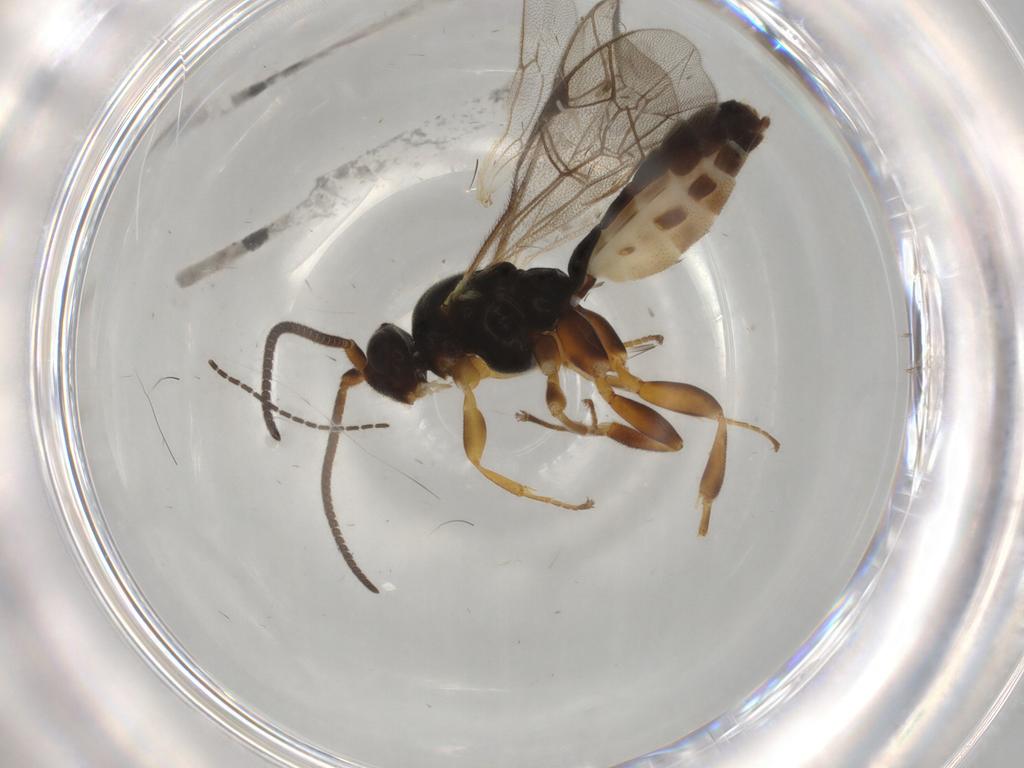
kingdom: Animalia
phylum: Arthropoda
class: Insecta
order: Hymenoptera
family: Ichneumonidae
